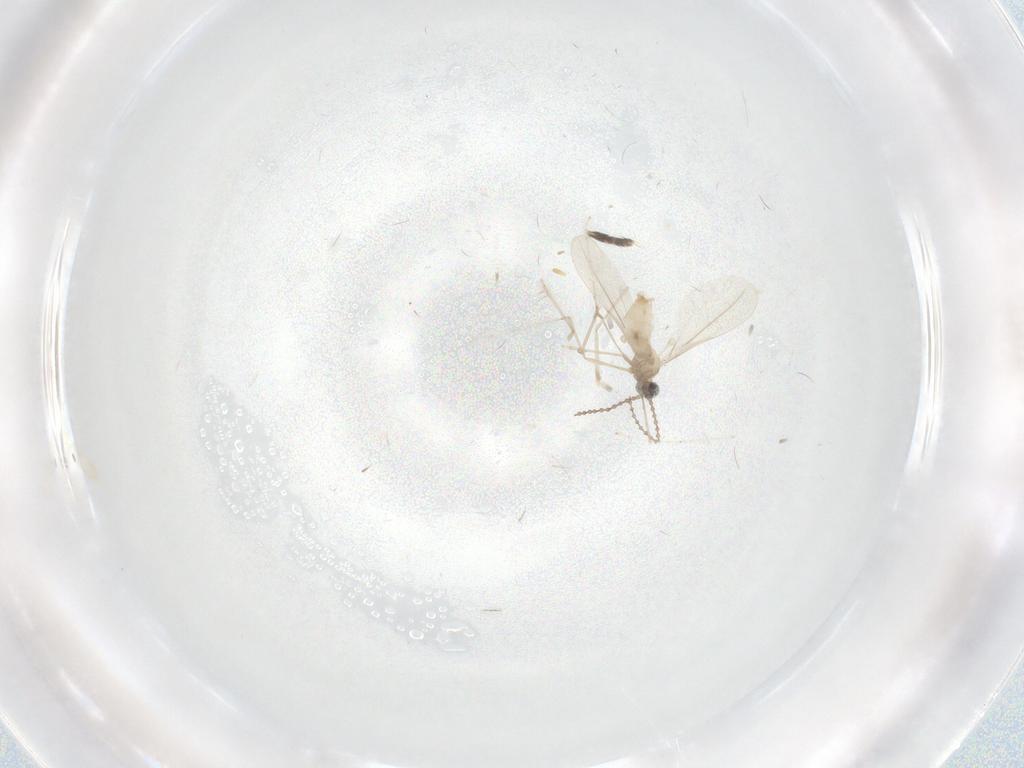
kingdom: Animalia
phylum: Arthropoda
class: Insecta
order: Diptera
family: Psychodidae
